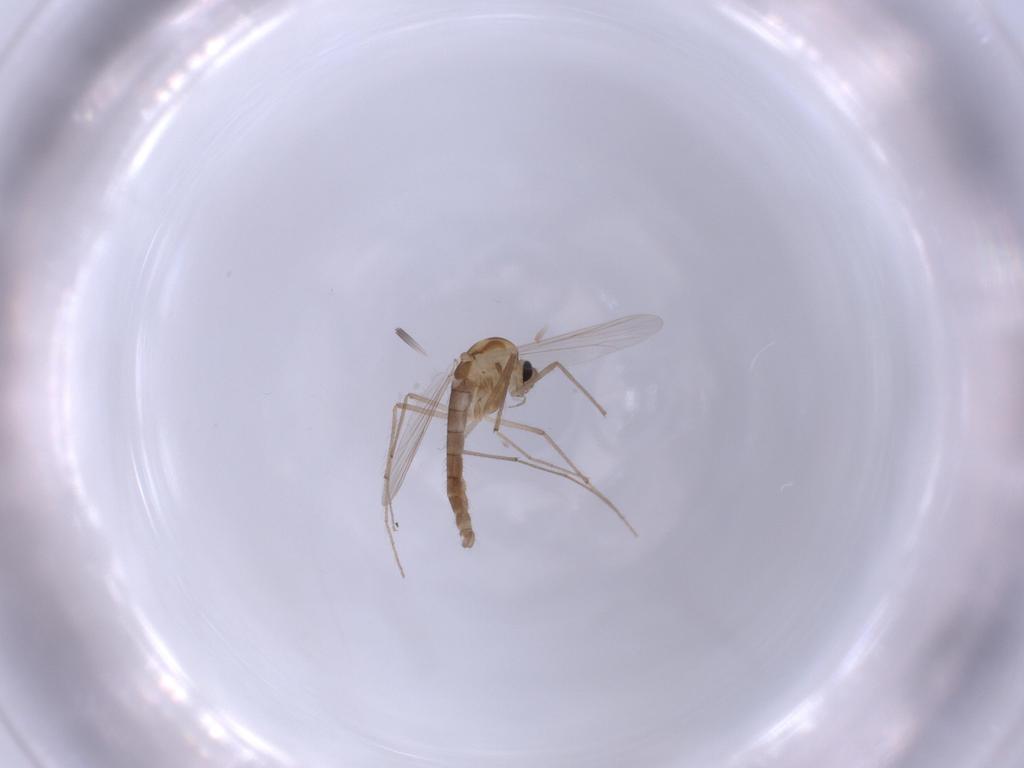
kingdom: Animalia
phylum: Arthropoda
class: Insecta
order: Diptera
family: Chironomidae
